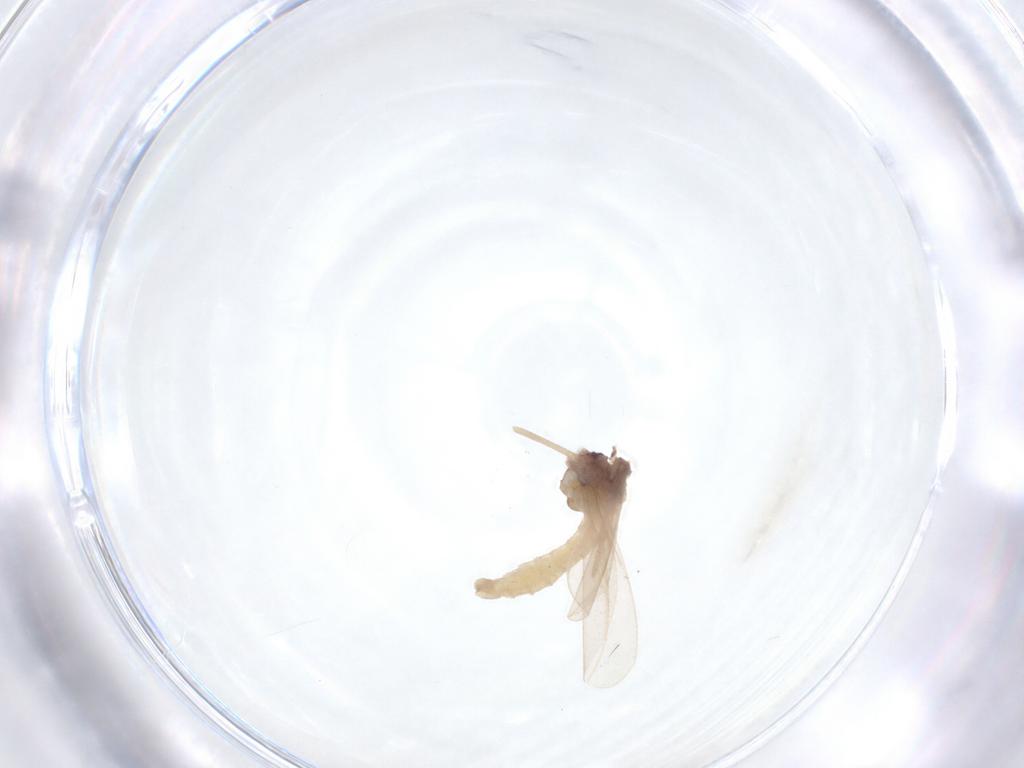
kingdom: Animalia
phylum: Arthropoda
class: Insecta
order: Diptera
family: Cecidomyiidae
